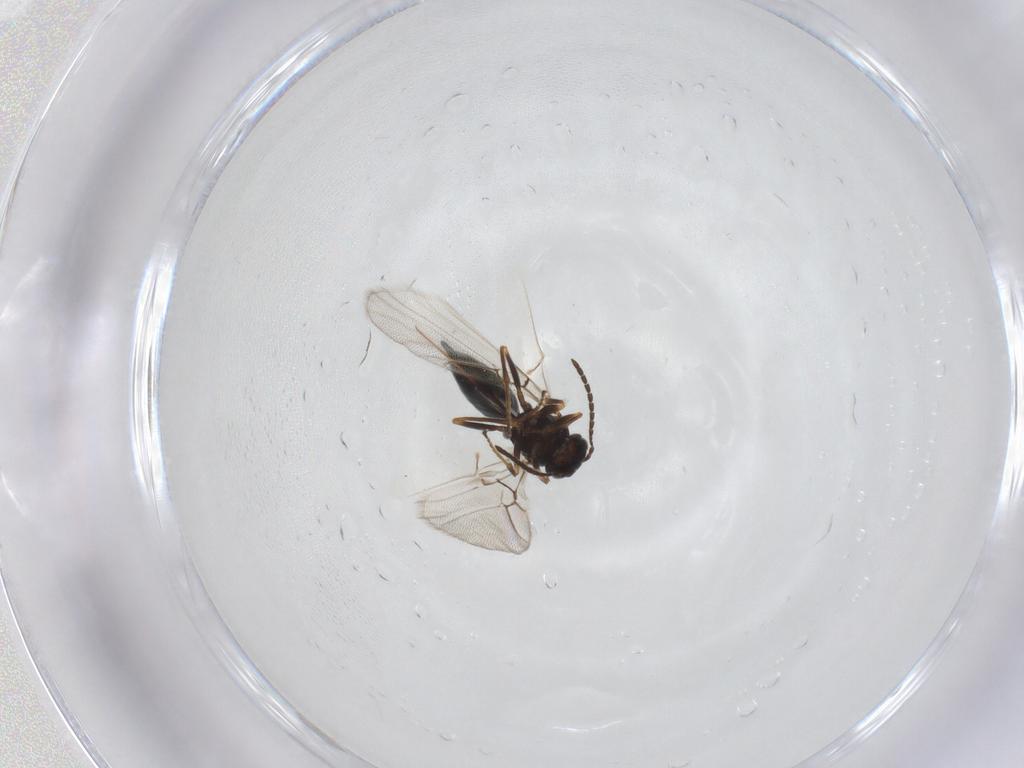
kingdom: Animalia
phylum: Arthropoda
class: Insecta
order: Hymenoptera
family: Cynipidae
